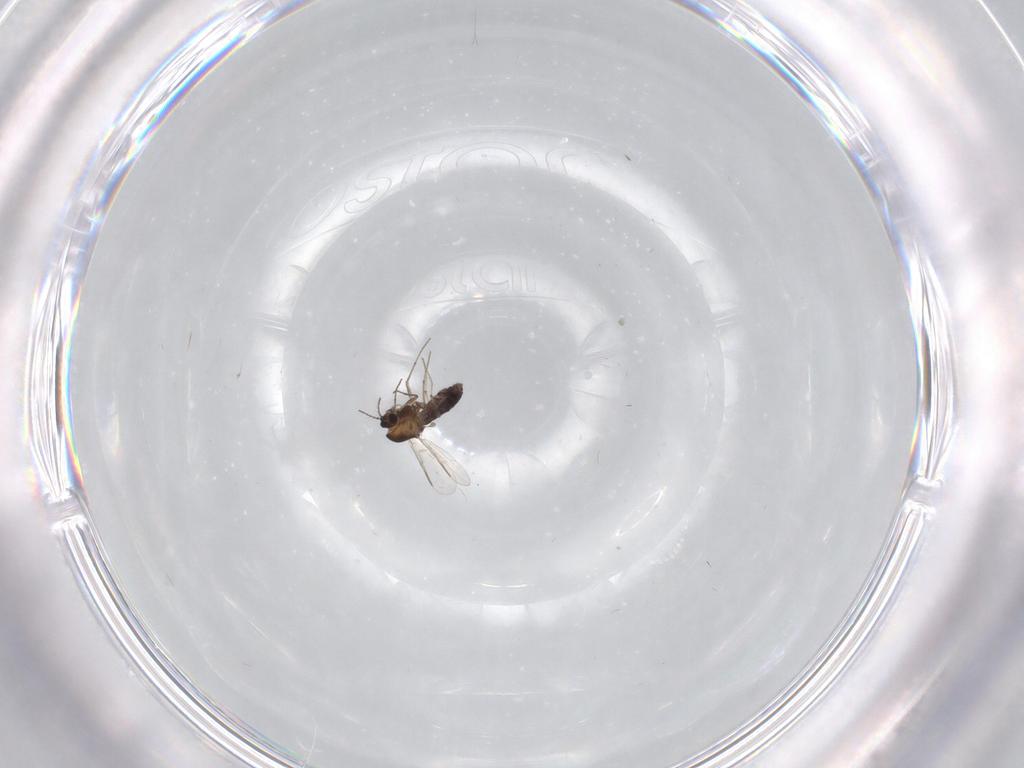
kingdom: Animalia
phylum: Arthropoda
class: Insecta
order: Diptera
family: Chironomidae
